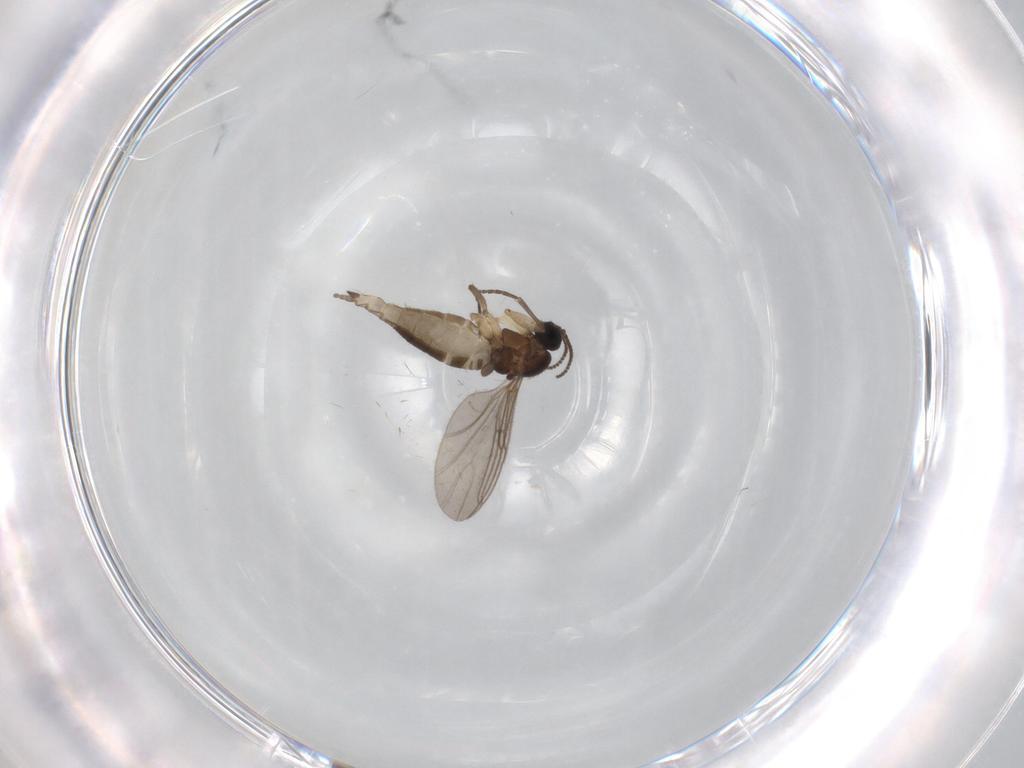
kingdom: Animalia
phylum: Arthropoda
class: Insecta
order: Diptera
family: Sciaridae
